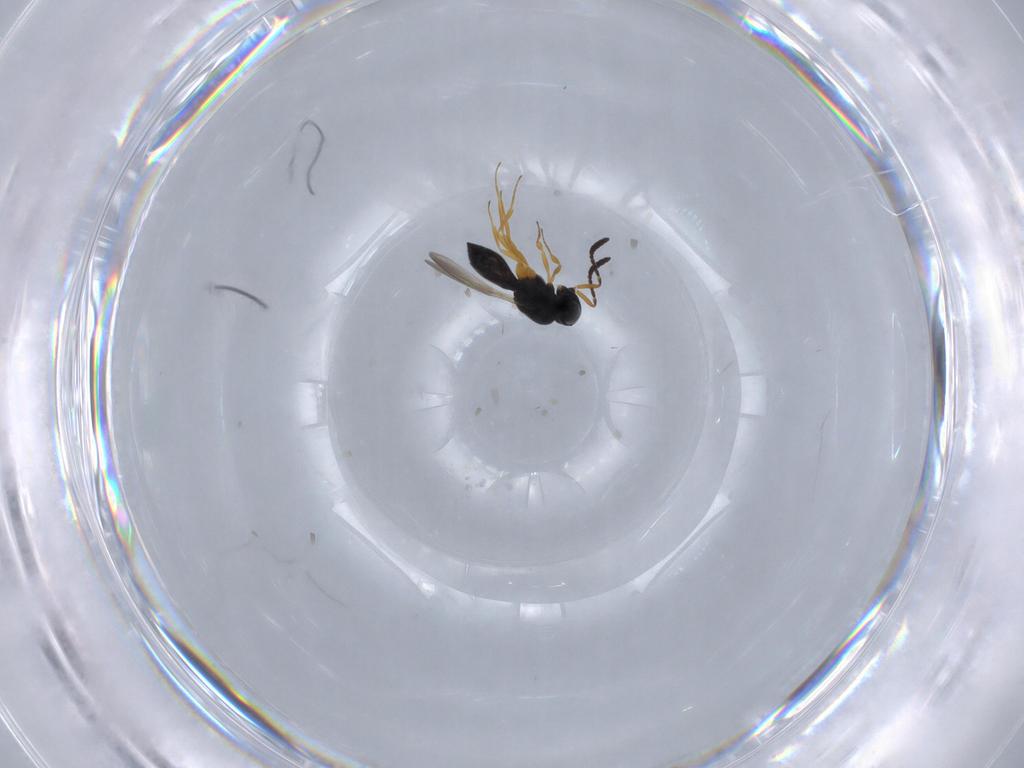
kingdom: Animalia
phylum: Arthropoda
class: Insecta
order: Hymenoptera
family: Scelionidae
